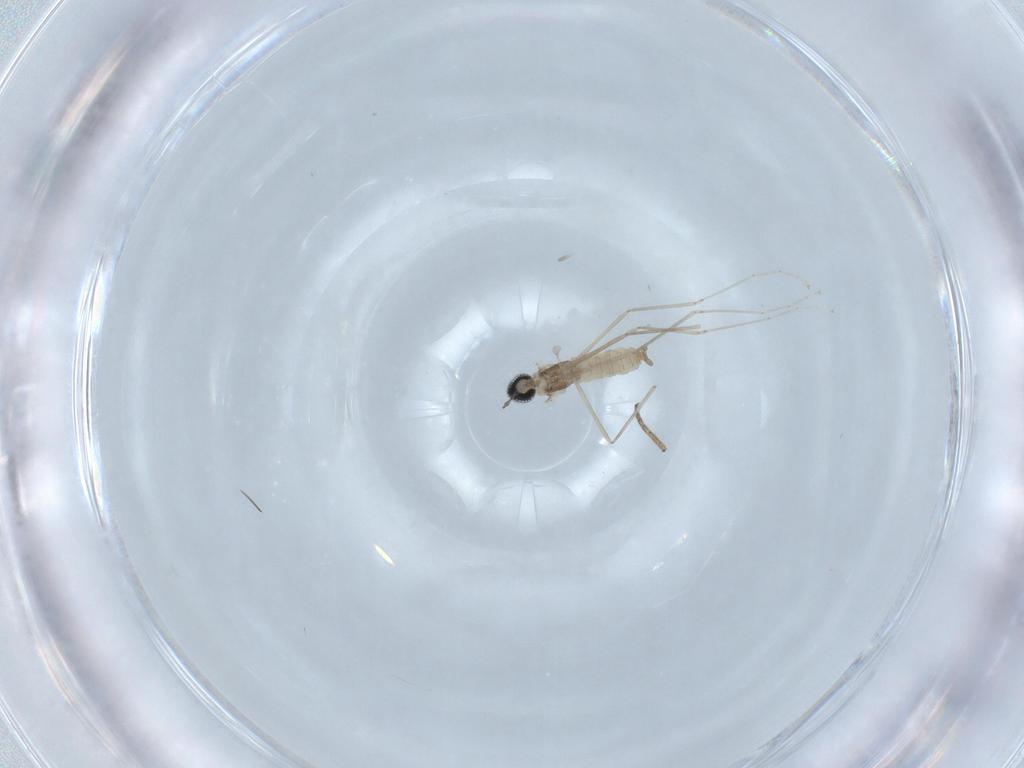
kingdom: Animalia
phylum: Arthropoda
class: Insecta
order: Diptera
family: Cecidomyiidae
